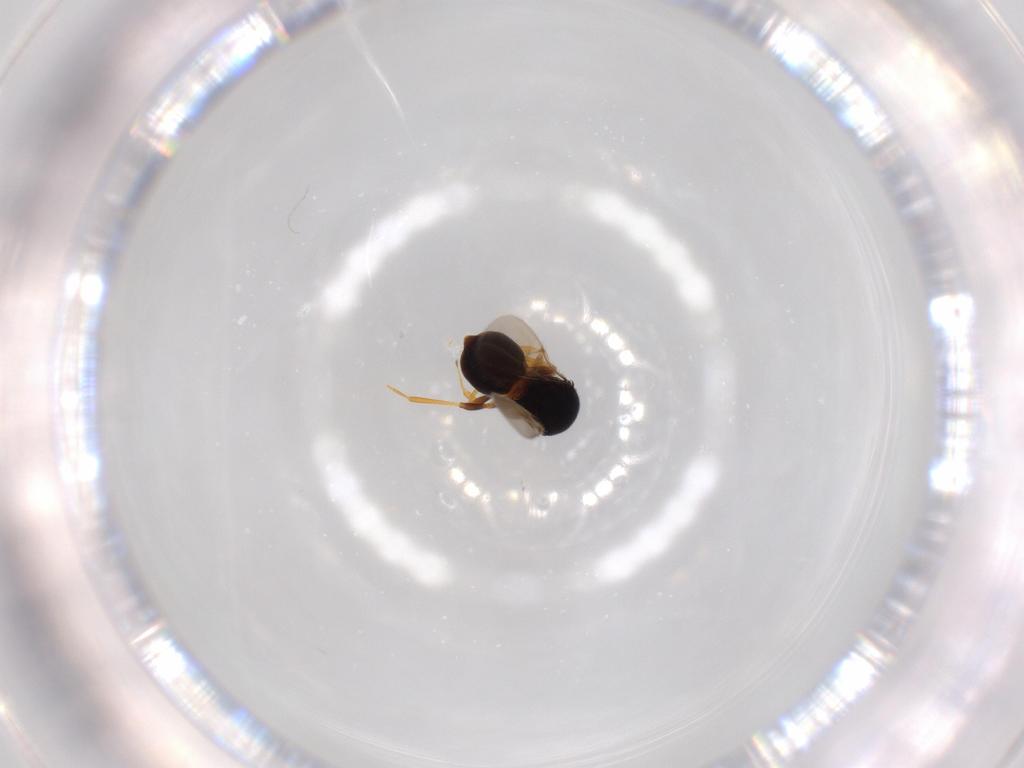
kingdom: Animalia
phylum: Arthropoda
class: Insecta
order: Hymenoptera
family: Scelionidae
